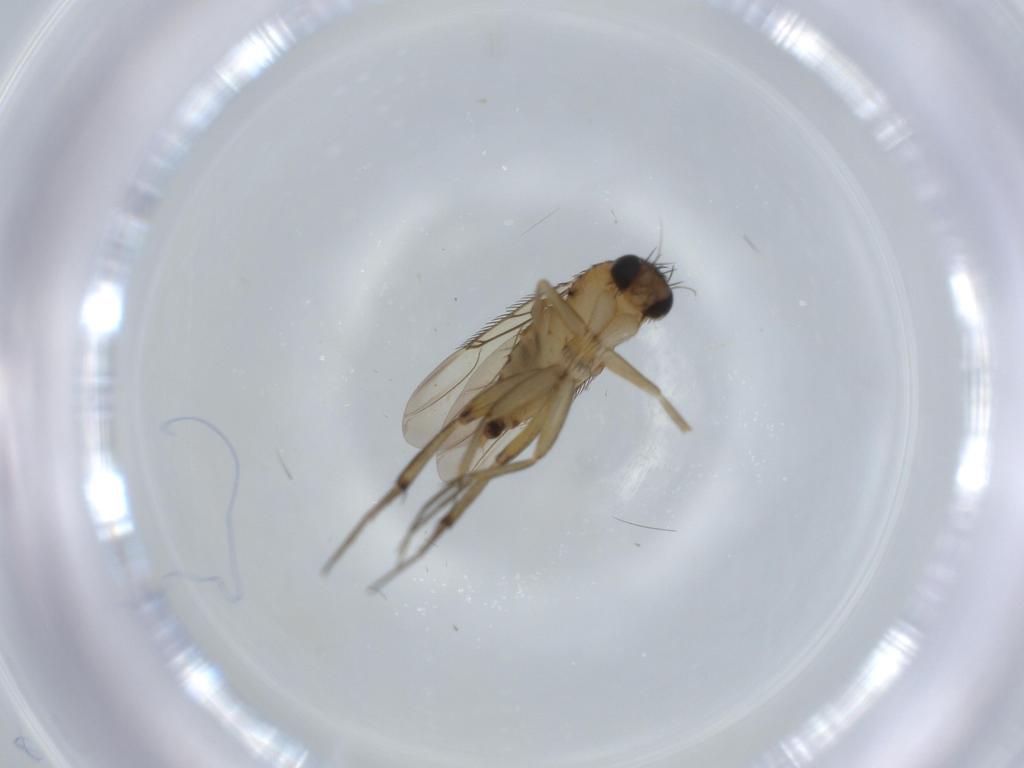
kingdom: Animalia
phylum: Arthropoda
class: Insecta
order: Diptera
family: Phoridae
